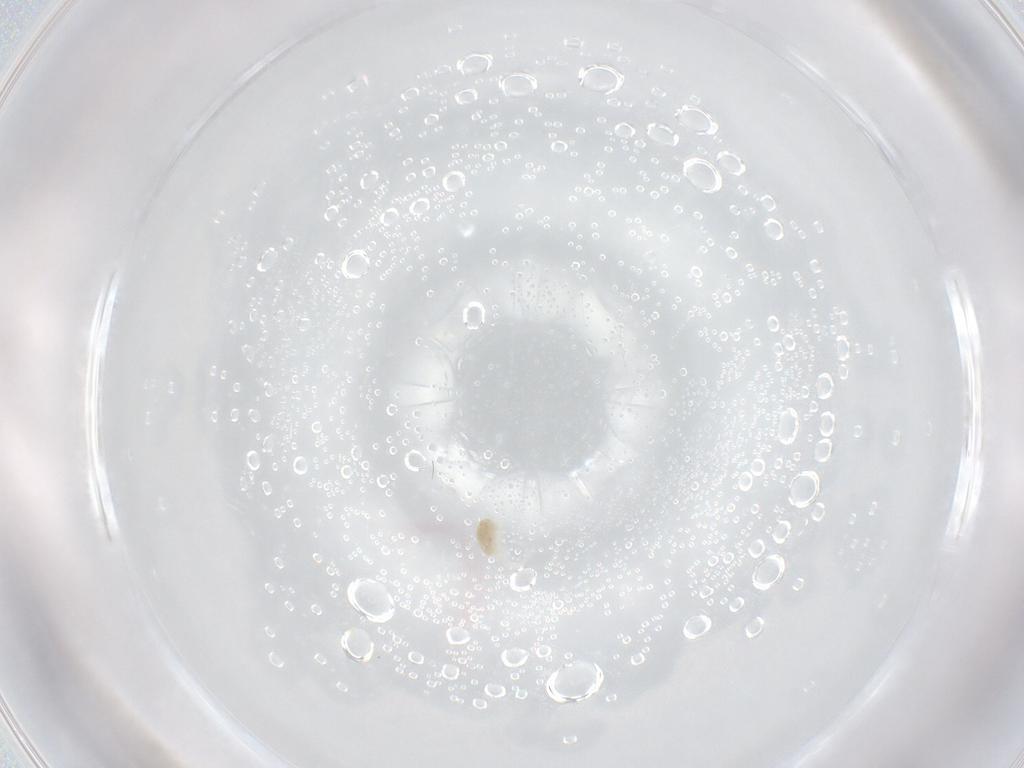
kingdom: Animalia
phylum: Arthropoda
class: Arachnida
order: Trombidiformes
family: Eupodidae
